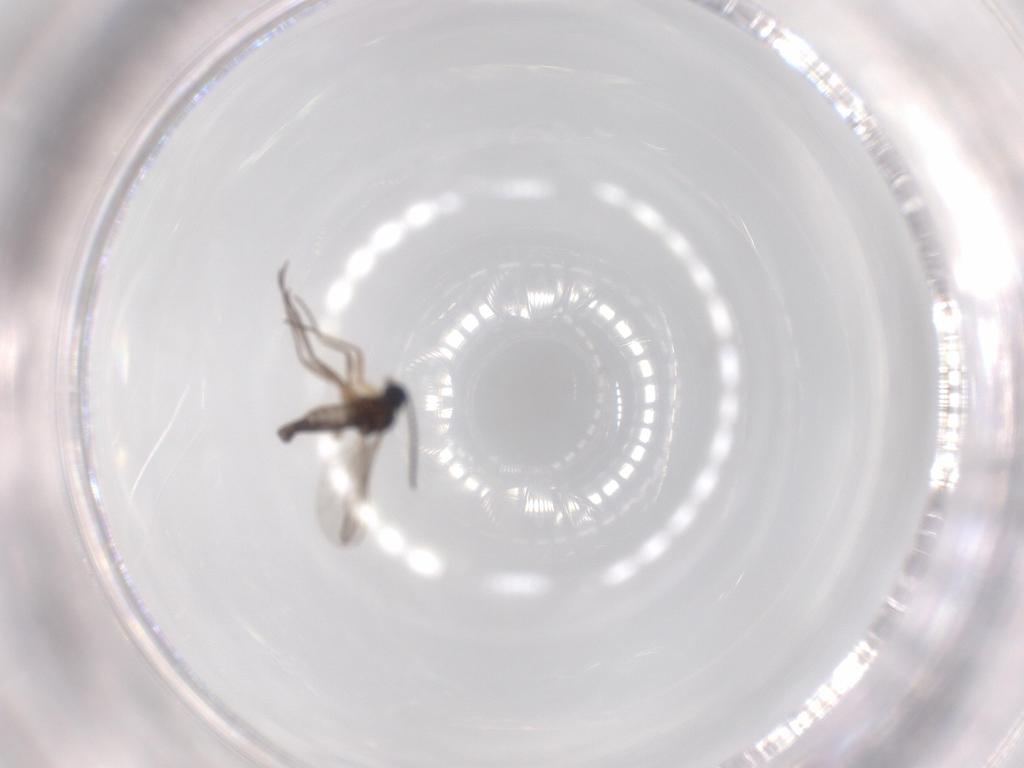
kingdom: Animalia
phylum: Arthropoda
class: Insecta
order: Diptera
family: Sciaridae
